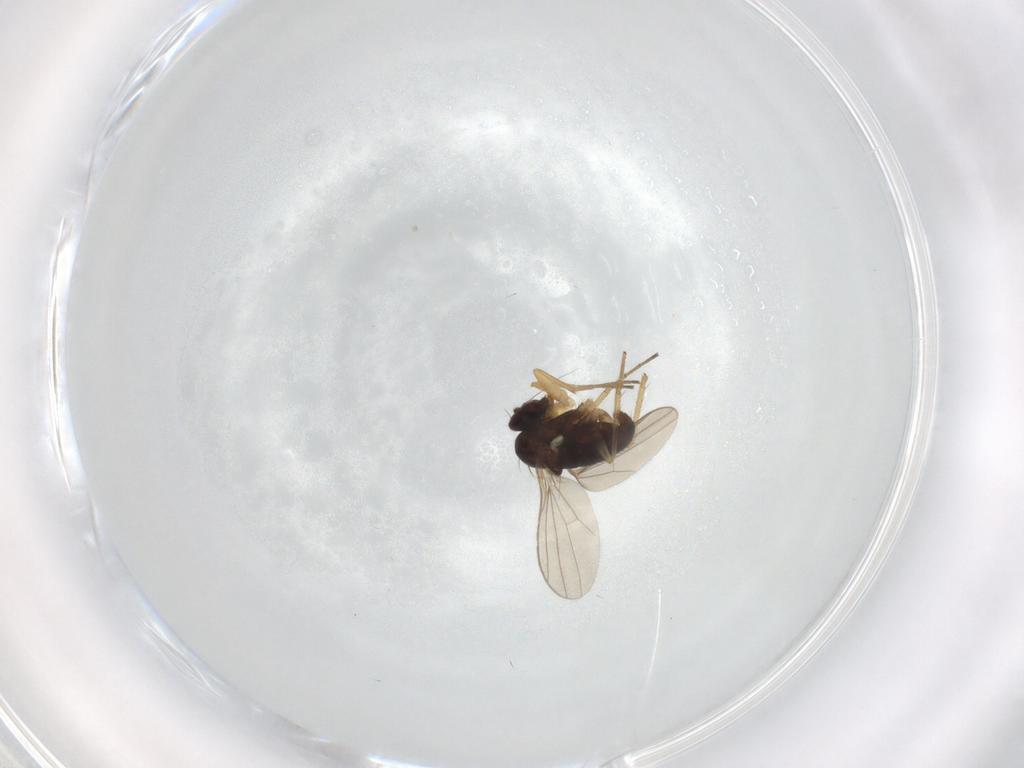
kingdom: Animalia
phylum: Arthropoda
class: Insecta
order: Diptera
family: Dolichopodidae
